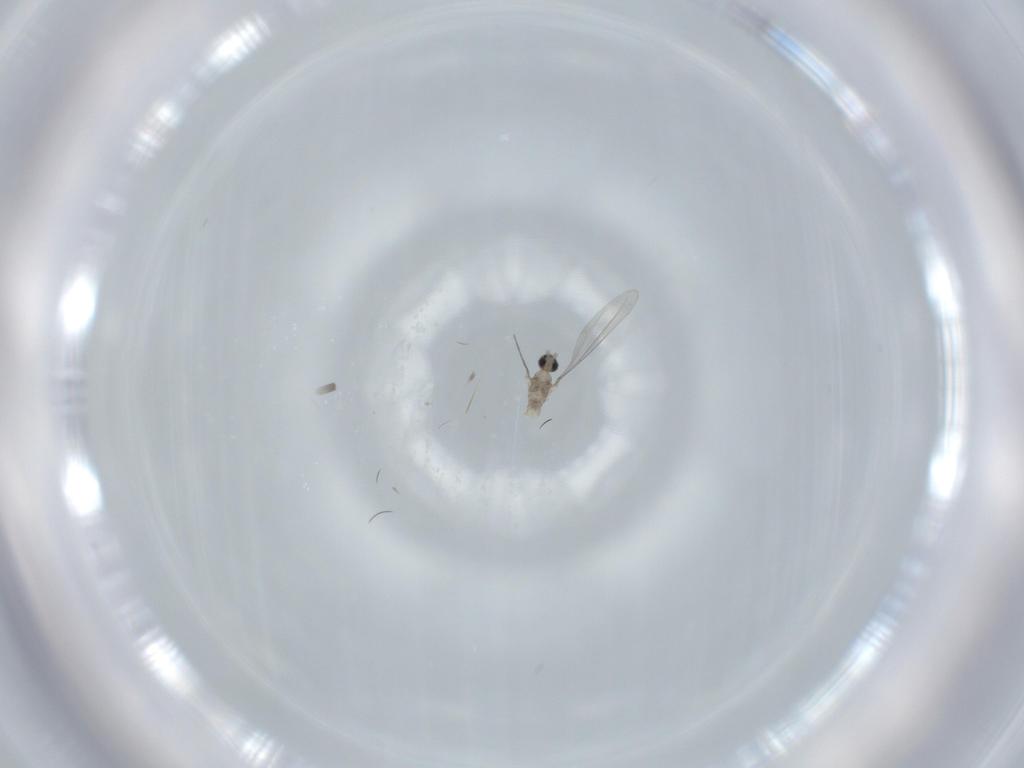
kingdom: Animalia
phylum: Arthropoda
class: Insecta
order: Diptera
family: Cecidomyiidae
